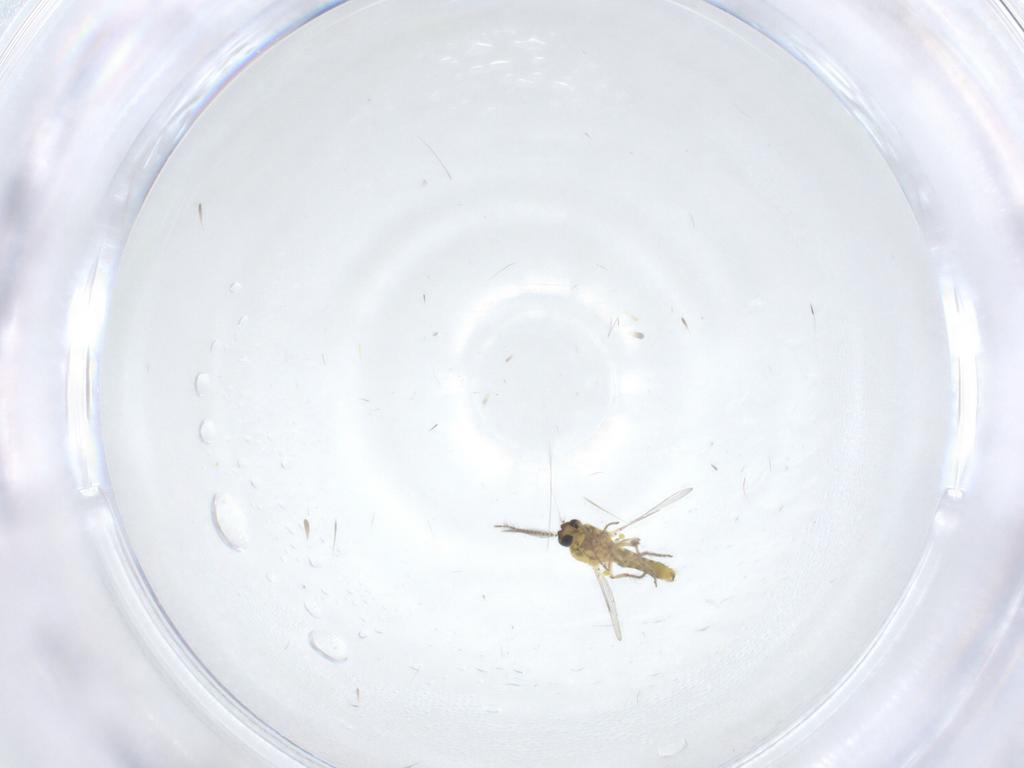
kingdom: Animalia
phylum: Arthropoda
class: Insecta
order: Diptera
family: Ceratopogonidae
